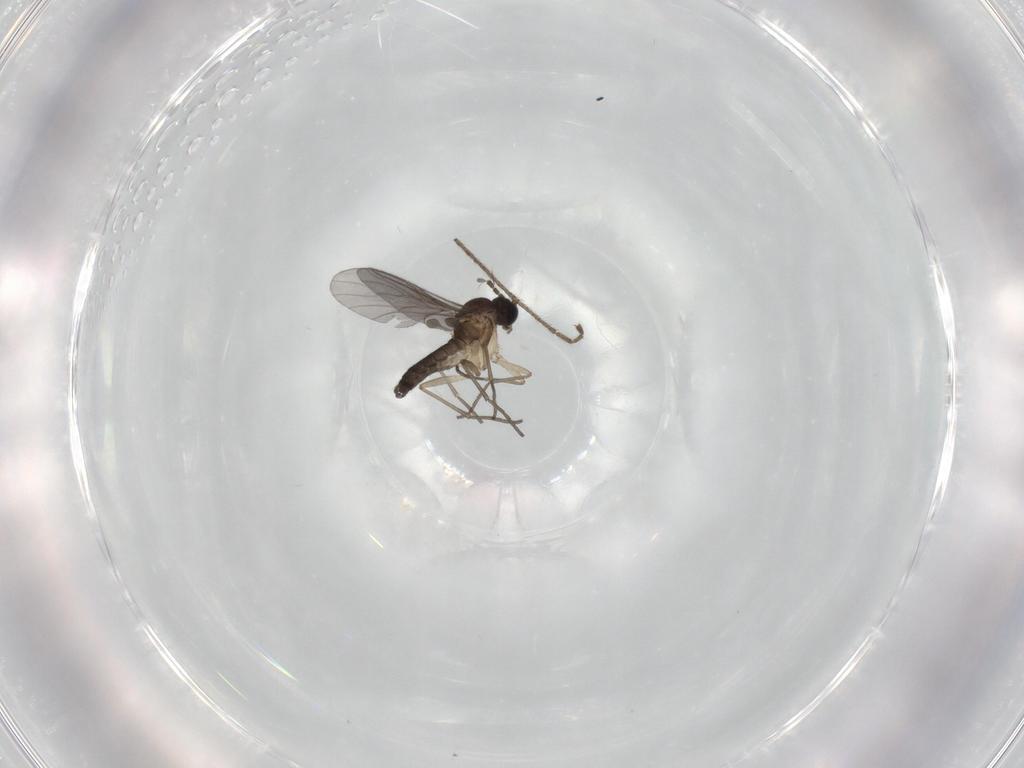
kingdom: Animalia
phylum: Arthropoda
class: Insecta
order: Diptera
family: Sciaridae
